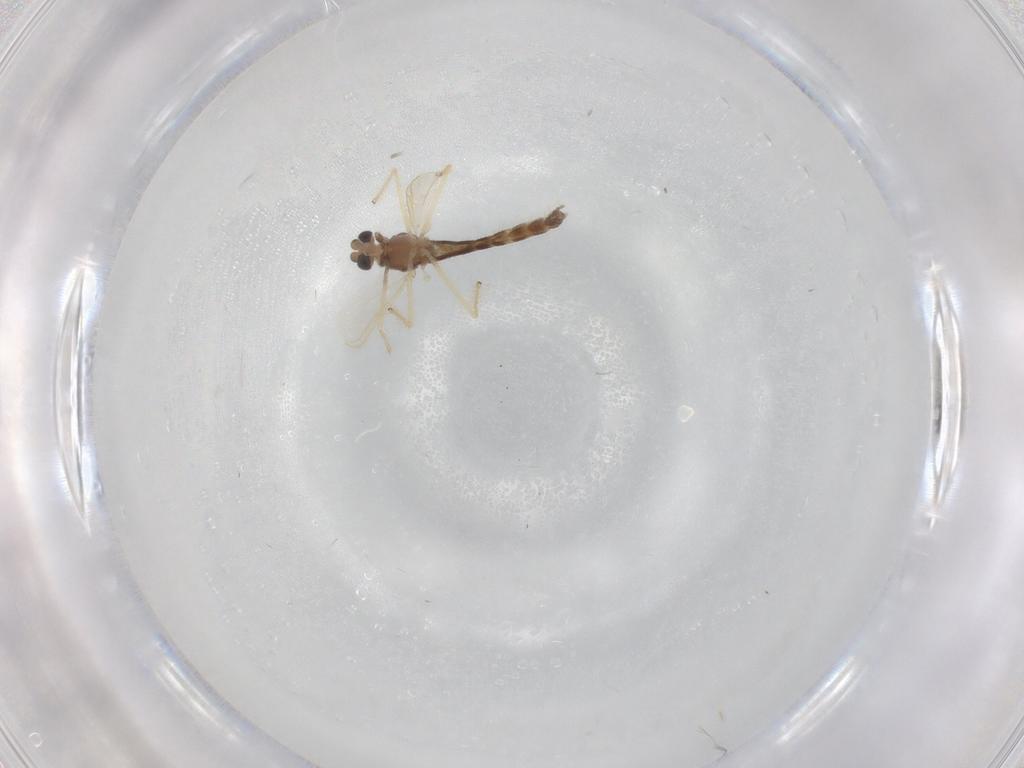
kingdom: Animalia
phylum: Arthropoda
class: Insecta
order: Diptera
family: Chironomidae
